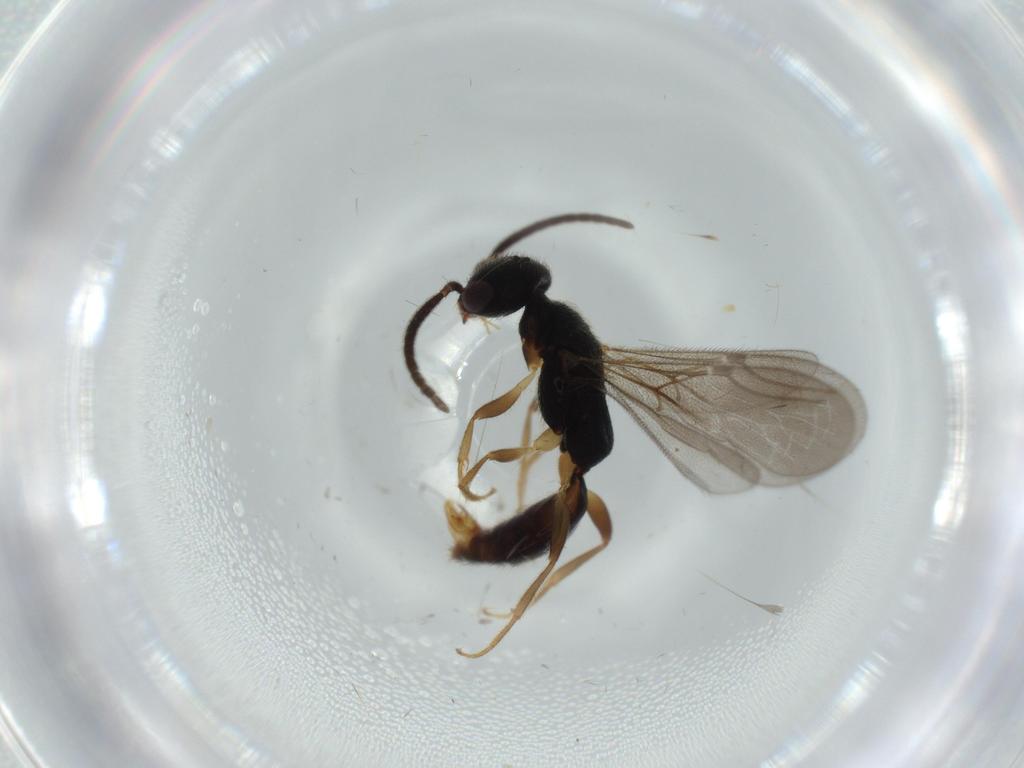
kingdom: Animalia
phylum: Arthropoda
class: Insecta
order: Hymenoptera
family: Bethylidae
